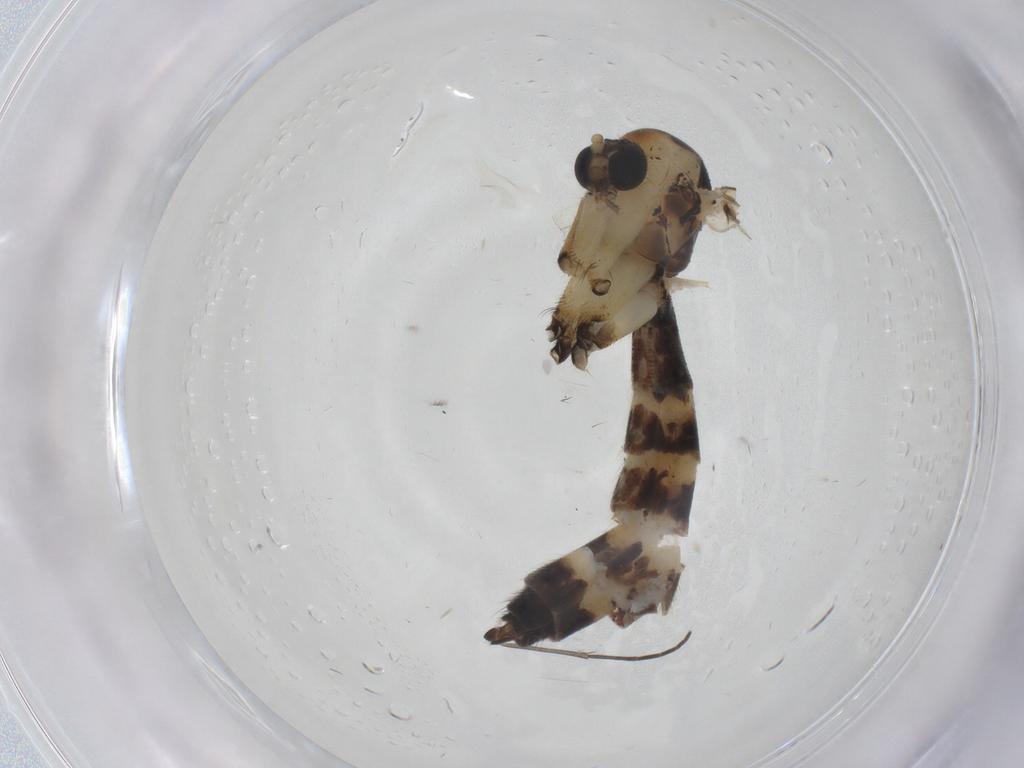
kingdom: Animalia
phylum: Arthropoda
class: Insecta
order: Diptera
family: Mycetophilidae
